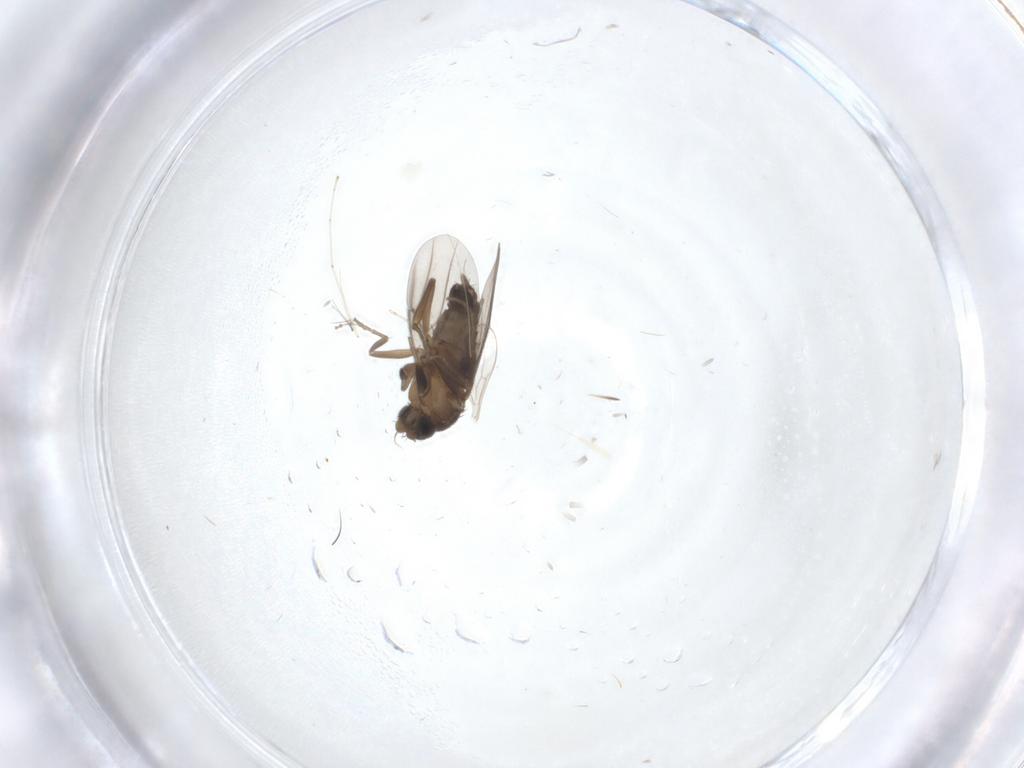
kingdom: Animalia
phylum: Arthropoda
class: Insecta
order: Diptera
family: Phoridae
